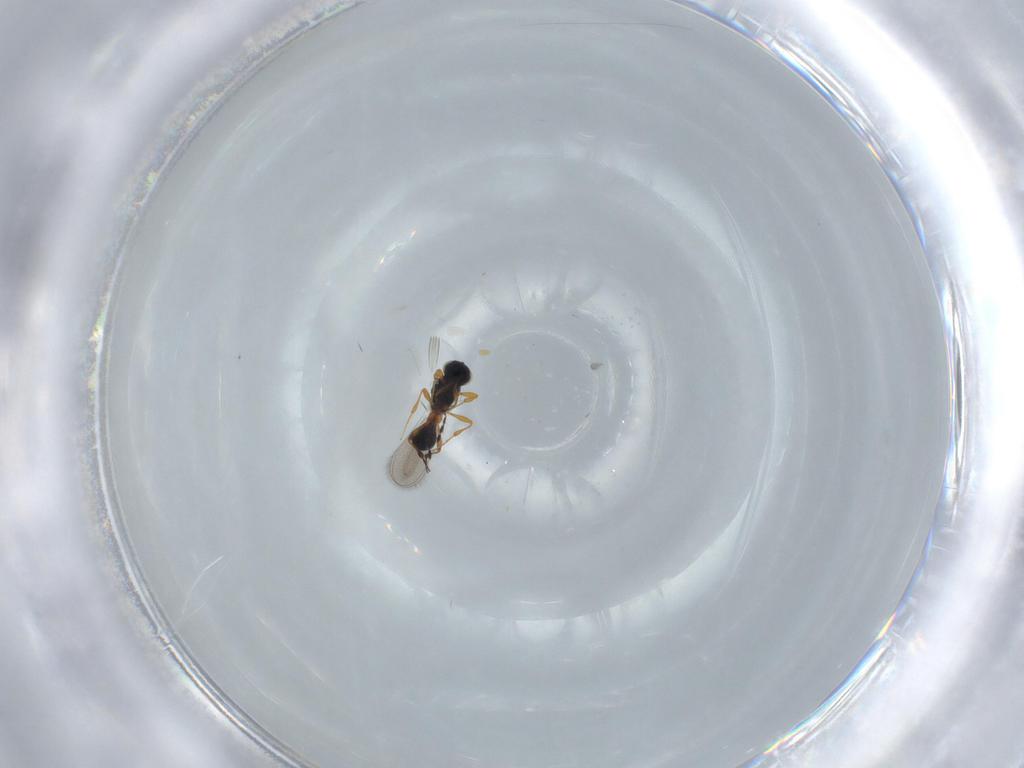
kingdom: Animalia
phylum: Arthropoda
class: Insecta
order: Hymenoptera
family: Platygastridae
